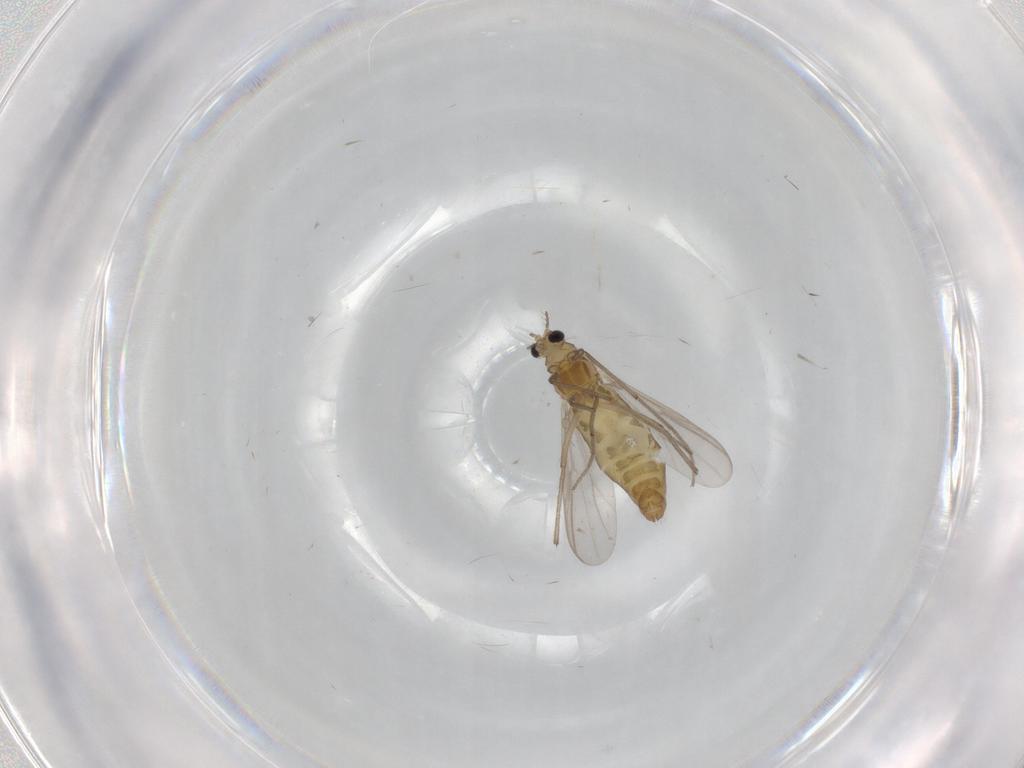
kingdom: Animalia
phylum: Arthropoda
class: Insecta
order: Diptera
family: Chironomidae
